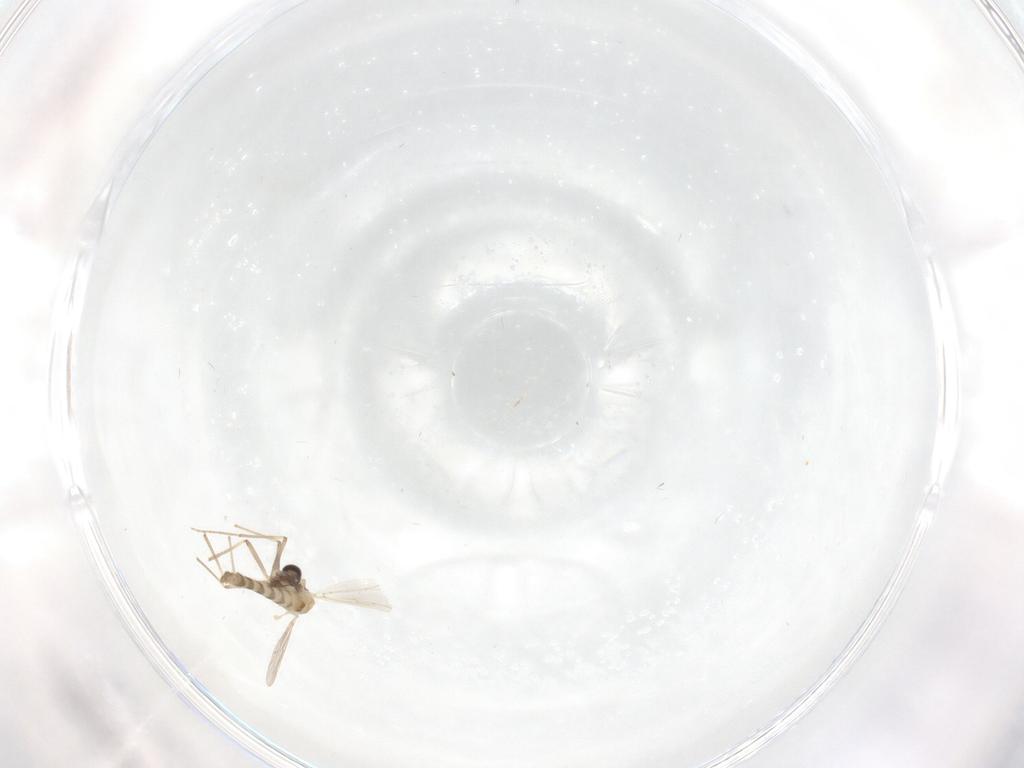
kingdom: Animalia
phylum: Arthropoda
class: Insecta
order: Diptera
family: Chironomidae
